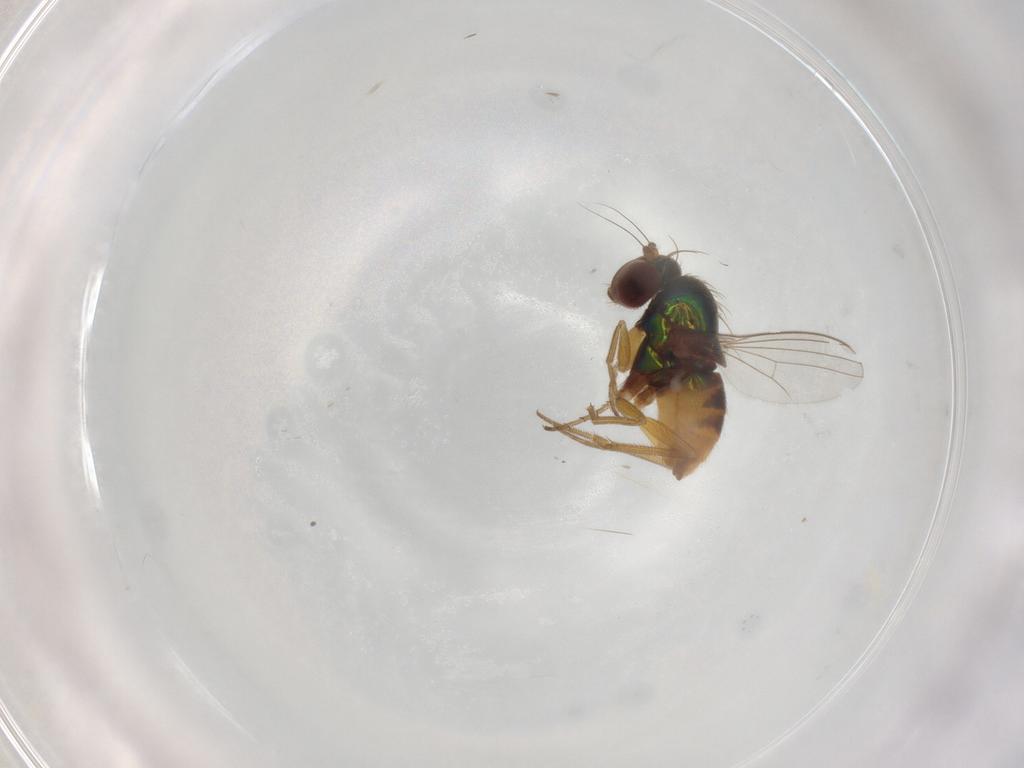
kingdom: Animalia
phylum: Arthropoda
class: Insecta
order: Diptera
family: Dolichopodidae
